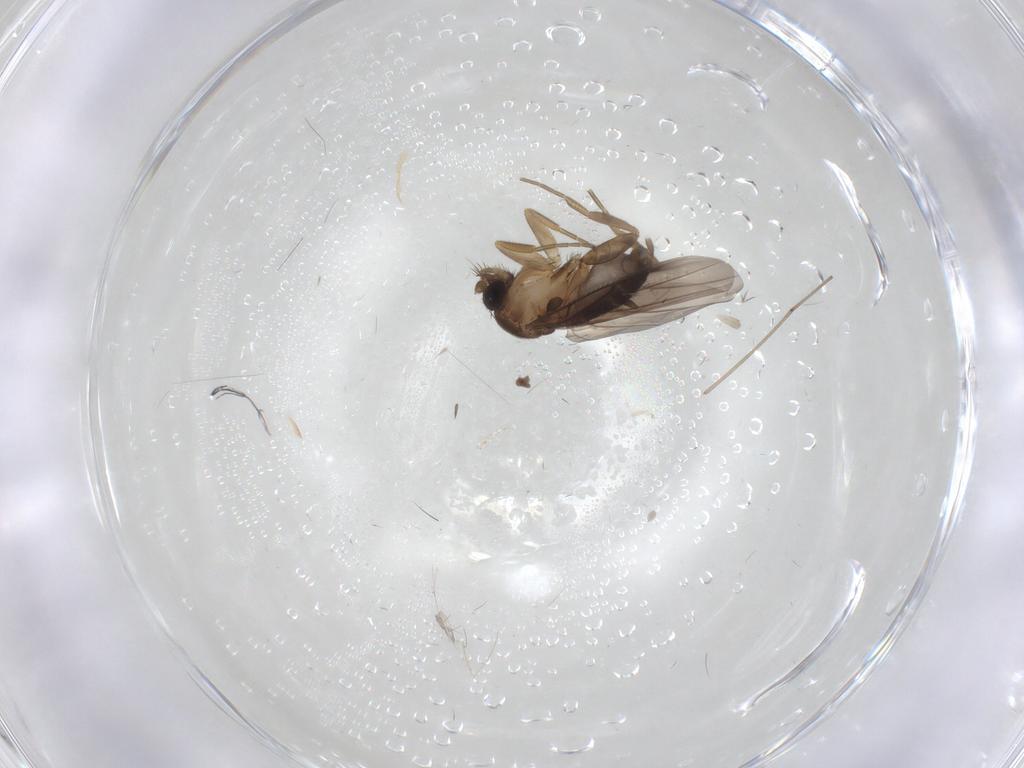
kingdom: Animalia
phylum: Arthropoda
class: Insecta
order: Diptera
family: Phoridae
